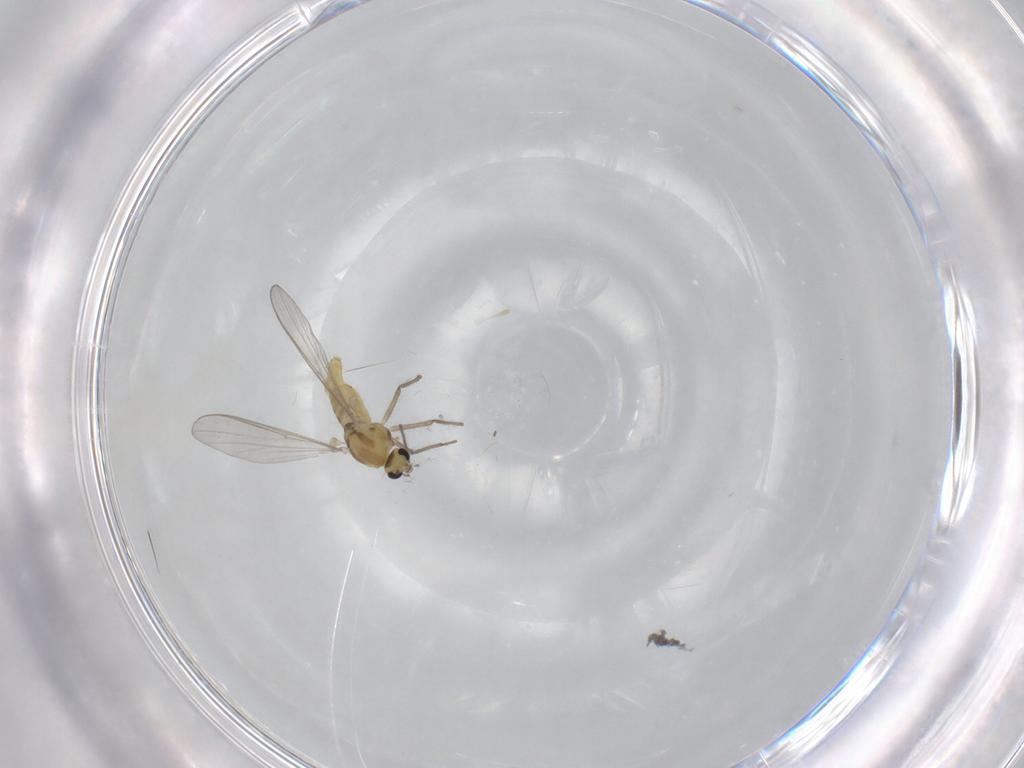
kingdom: Animalia
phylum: Arthropoda
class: Insecta
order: Diptera
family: Chironomidae
